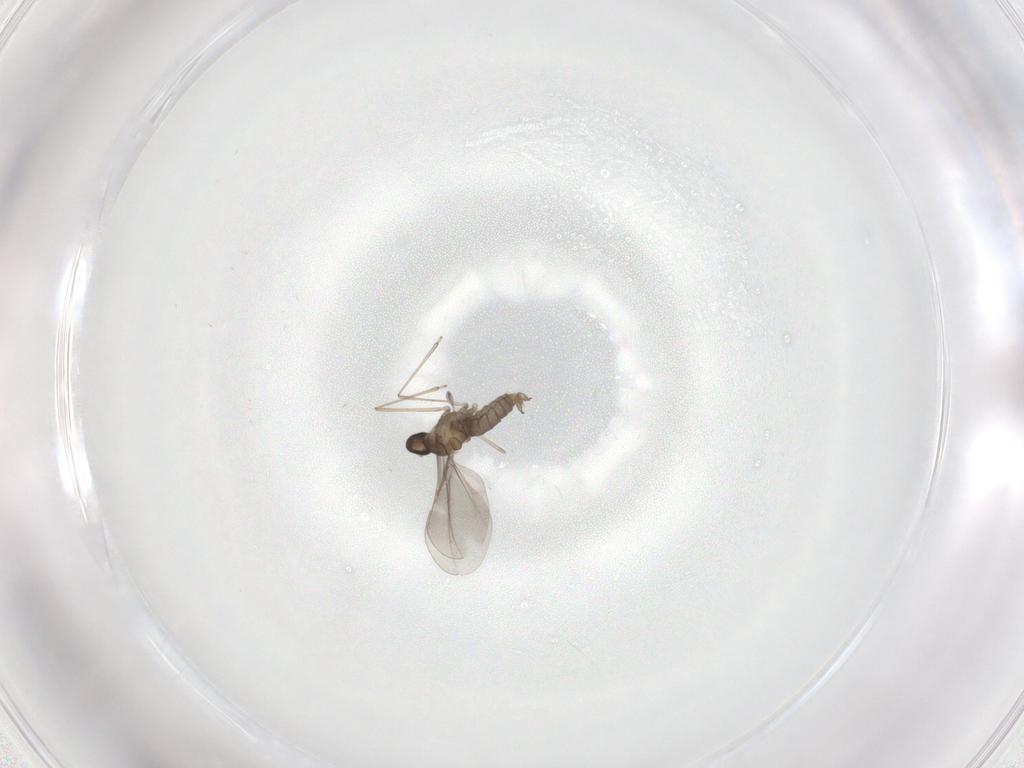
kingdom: Animalia
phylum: Arthropoda
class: Insecta
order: Diptera
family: Cecidomyiidae
